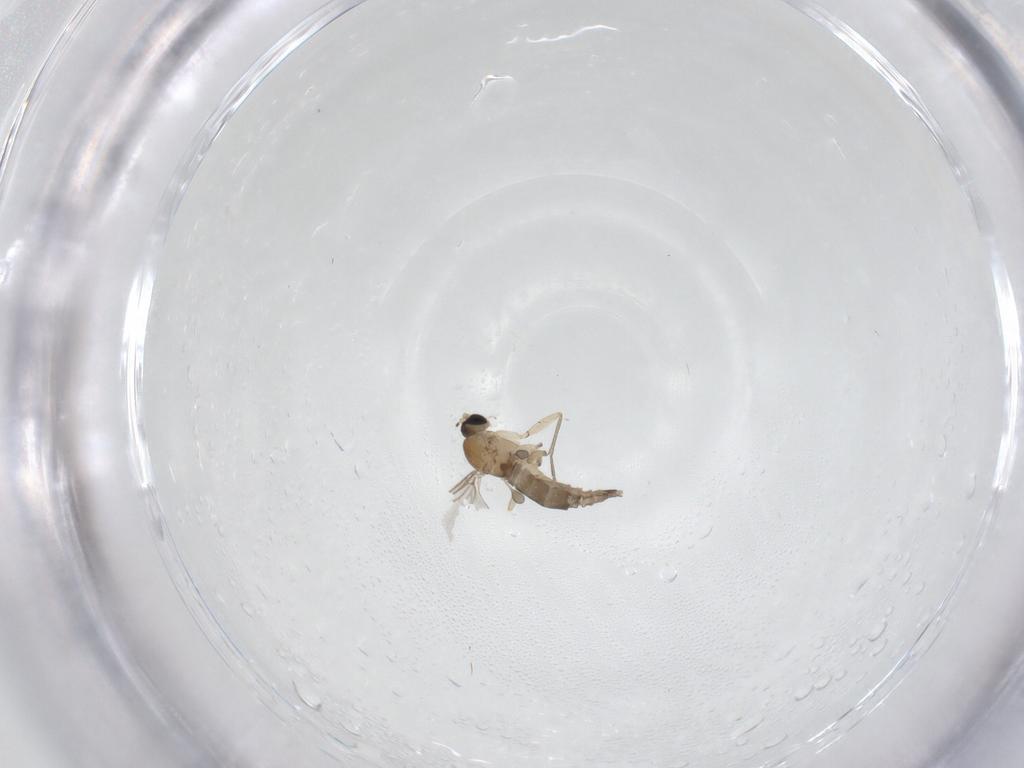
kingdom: Animalia
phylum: Arthropoda
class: Insecta
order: Diptera
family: Sciaridae
